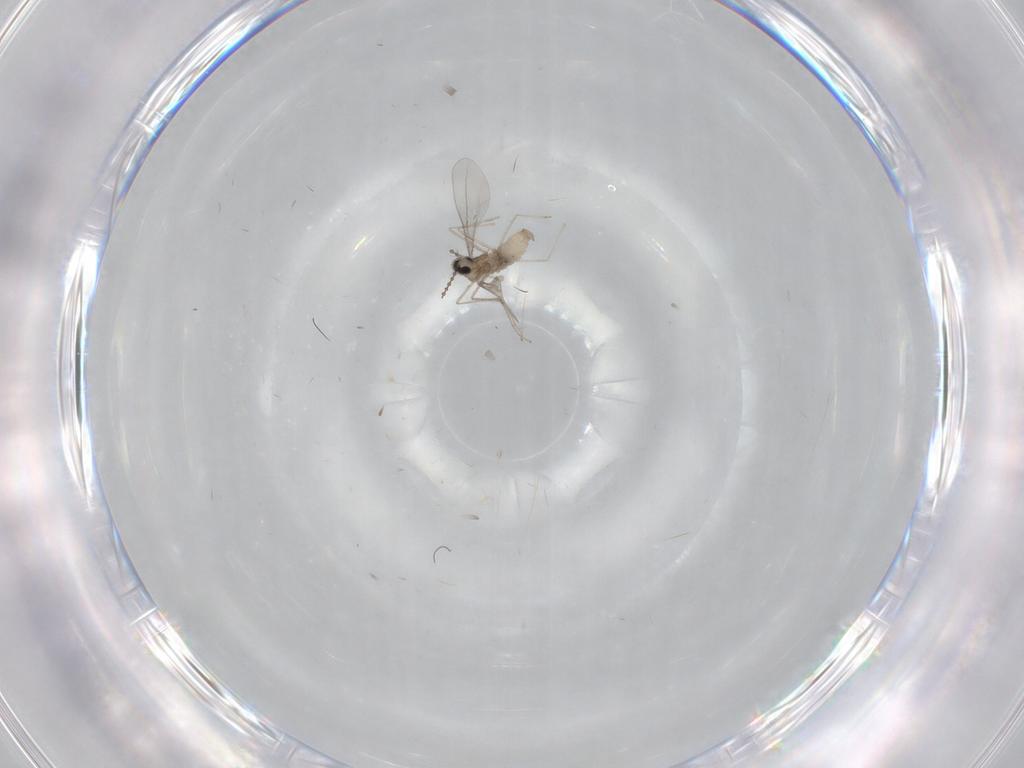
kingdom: Animalia
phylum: Arthropoda
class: Insecta
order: Diptera
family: Cecidomyiidae
